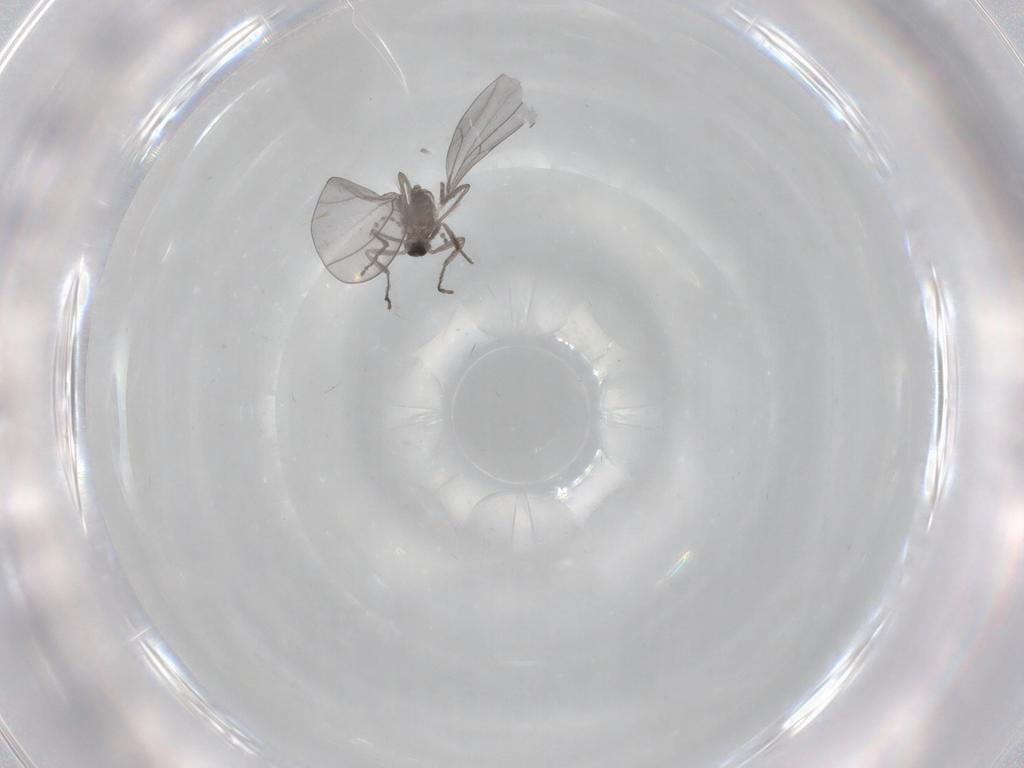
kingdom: Animalia
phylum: Arthropoda
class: Insecta
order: Diptera
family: Cecidomyiidae
